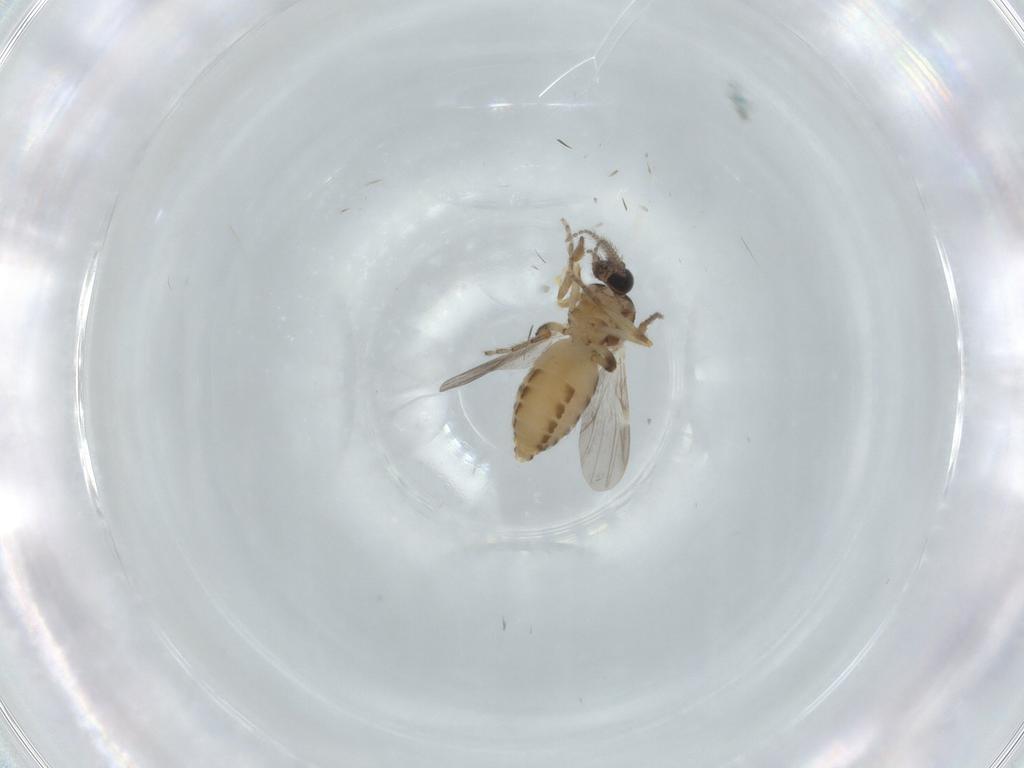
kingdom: Animalia
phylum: Arthropoda
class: Insecta
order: Diptera
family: Ceratopogonidae
